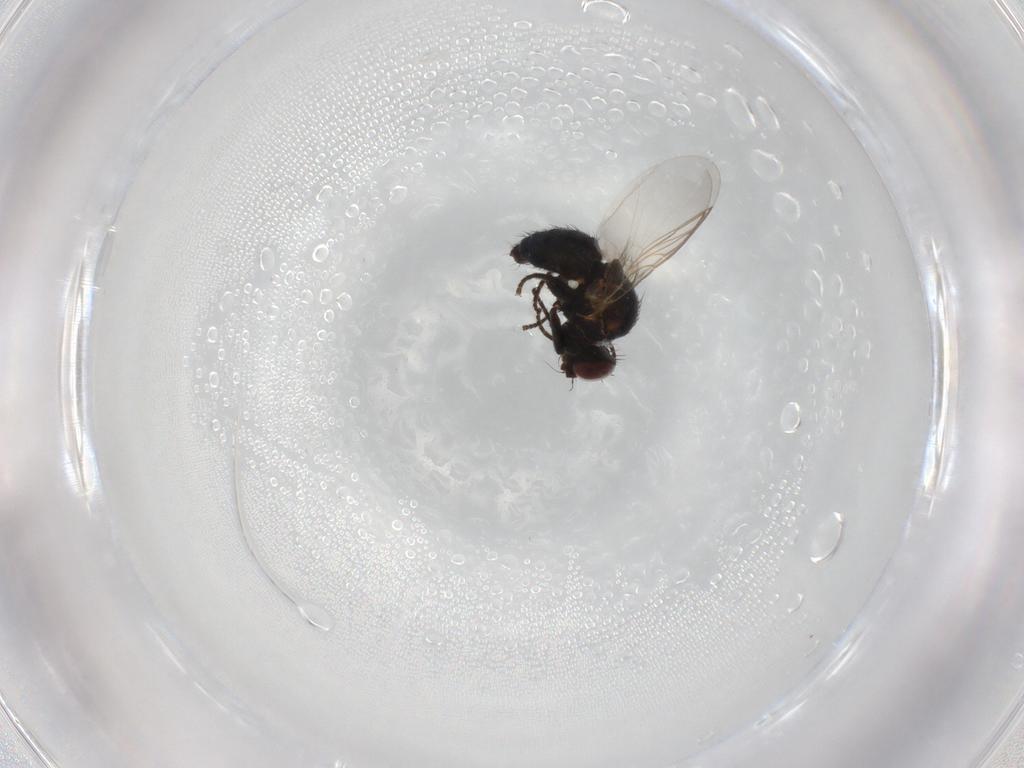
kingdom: Animalia
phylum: Arthropoda
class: Insecta
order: Diptera
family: Agromyzidae
